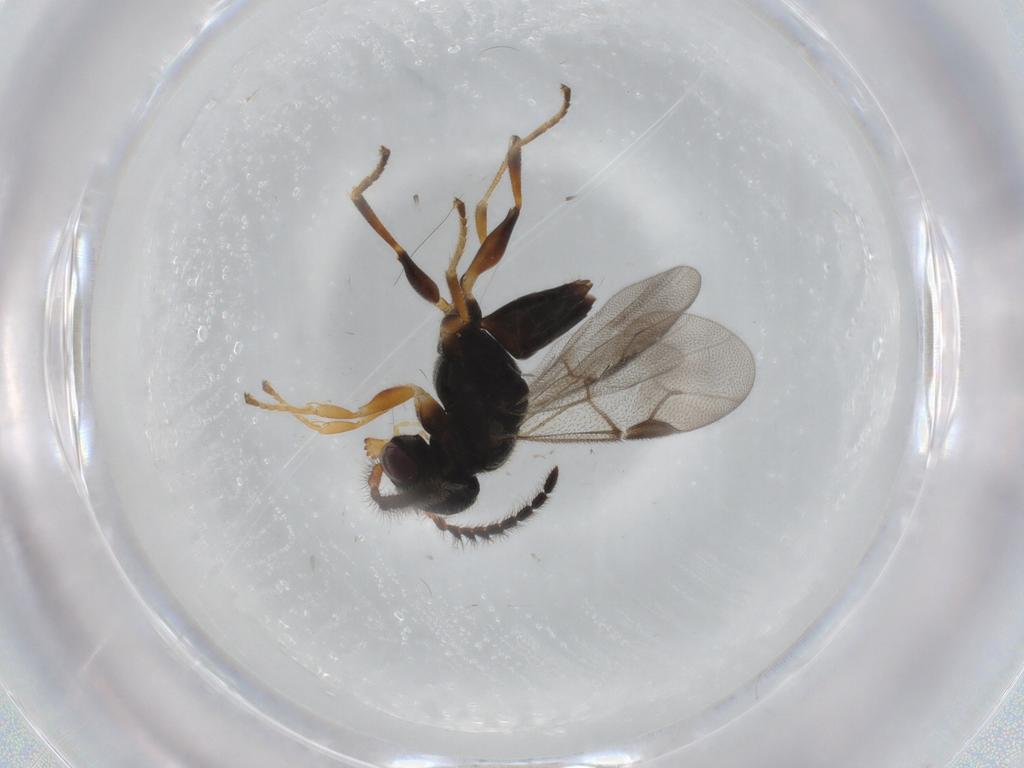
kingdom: Animalia
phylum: Arthropoda
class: Insecta
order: Hymenoptera
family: Dryinidae
